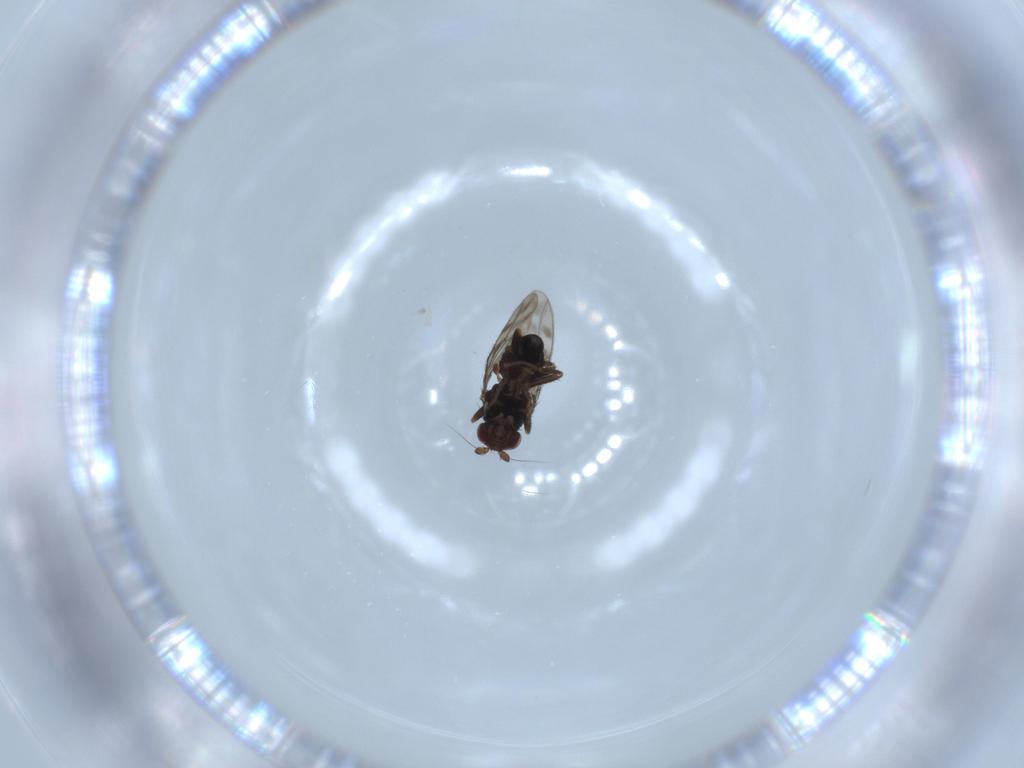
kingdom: Animalia
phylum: Arthropoda
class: Insecta
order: Diptera
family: Sphaeroceridae
